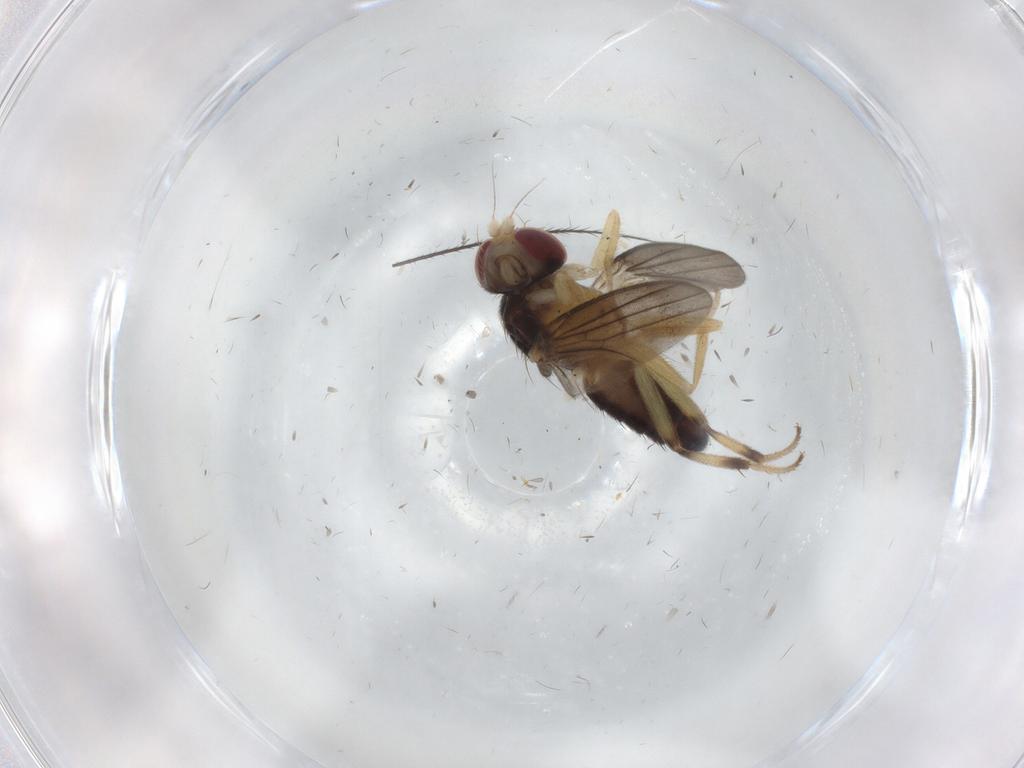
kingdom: Animalia
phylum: Arthropoda
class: Insecta
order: Diptera
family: Clusiidae
